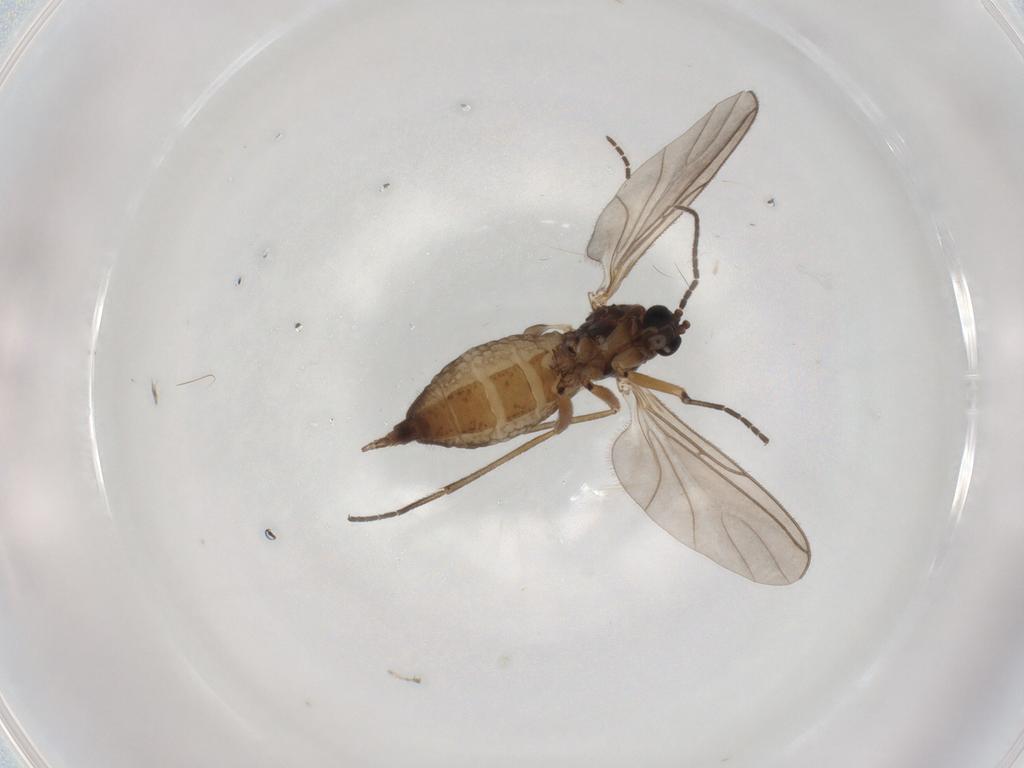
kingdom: Animalia
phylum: Arthropoda
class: Insecta
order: Diptera
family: Sciaridae
